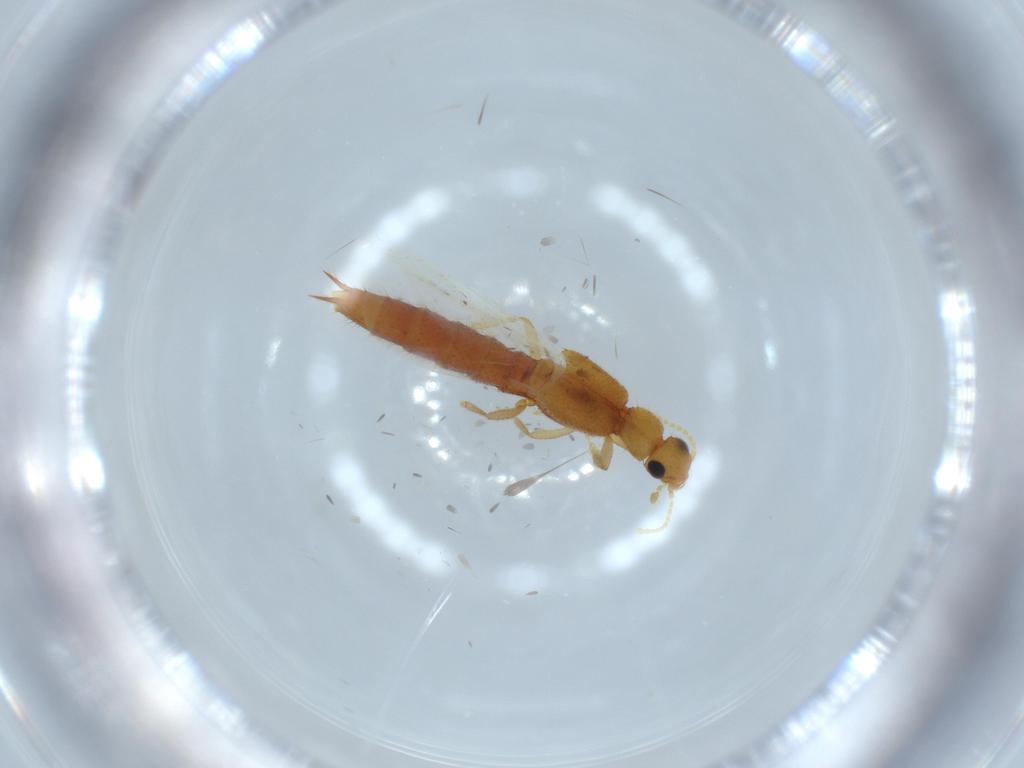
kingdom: Animalia
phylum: Arthropoda
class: Insecta
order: Coleoptera
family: Staphylinidae
